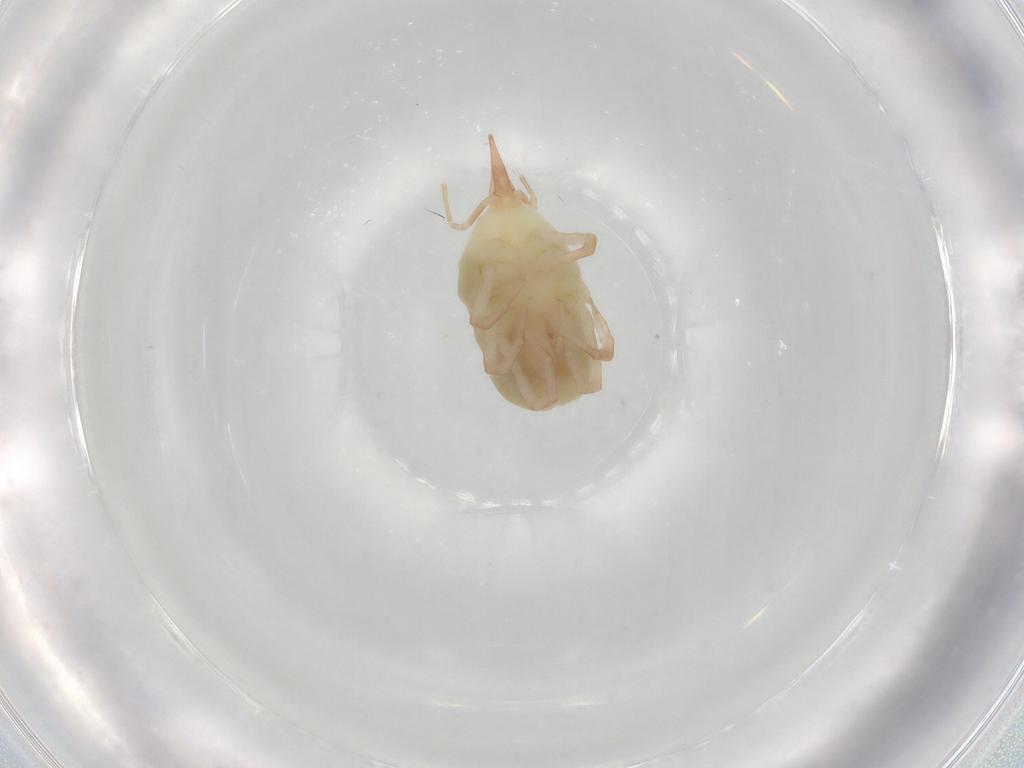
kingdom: Animalia
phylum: Arthropoda
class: Arachnida
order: Trombidiformes
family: Bdellidae
